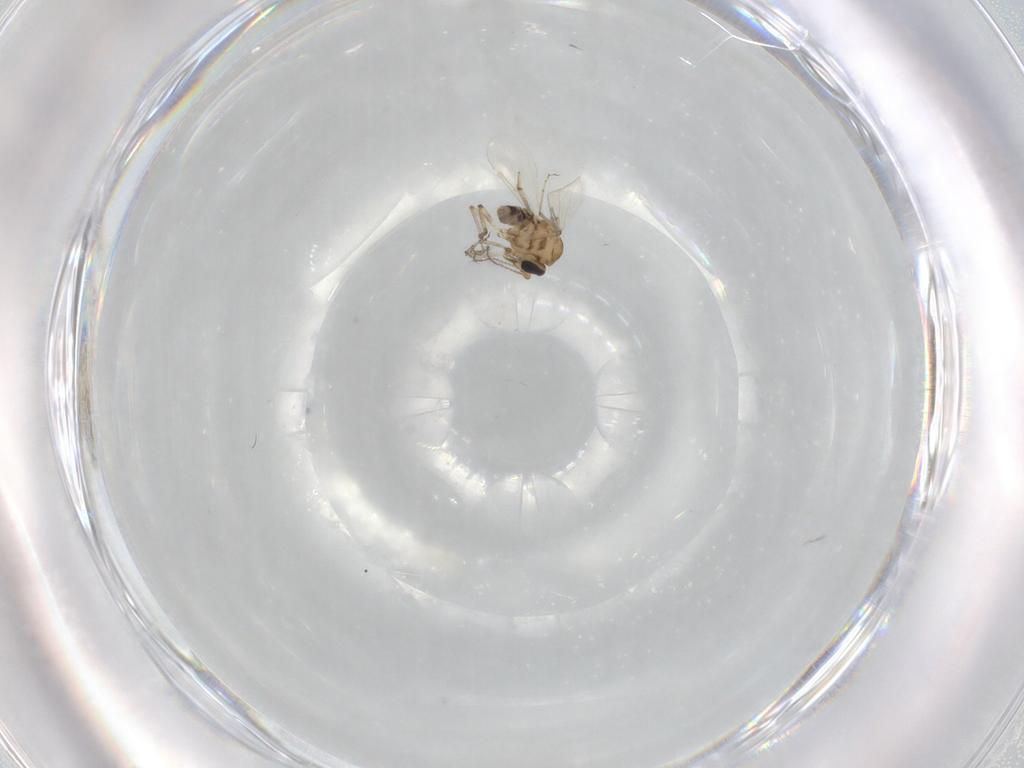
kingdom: Animalia
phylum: Arthropoda
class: Insecta
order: Diptera
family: Ceratopogonidae
